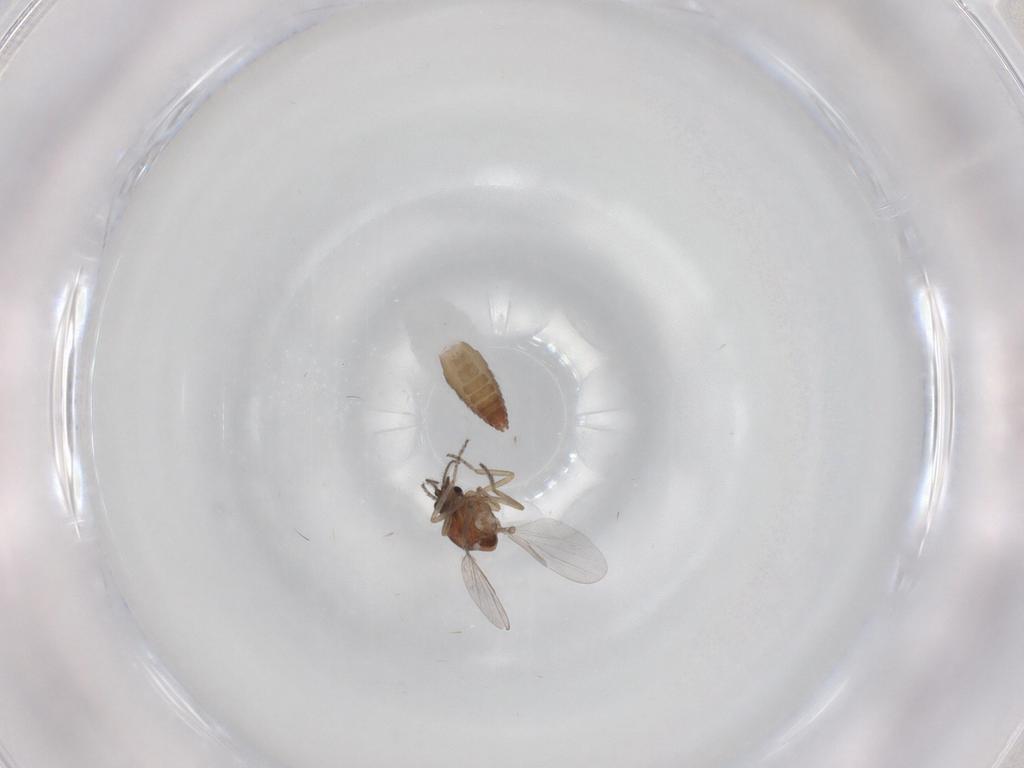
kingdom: Animalia
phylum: Arthropoda
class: Insecta
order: Diptera
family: Ceratopogonidae
